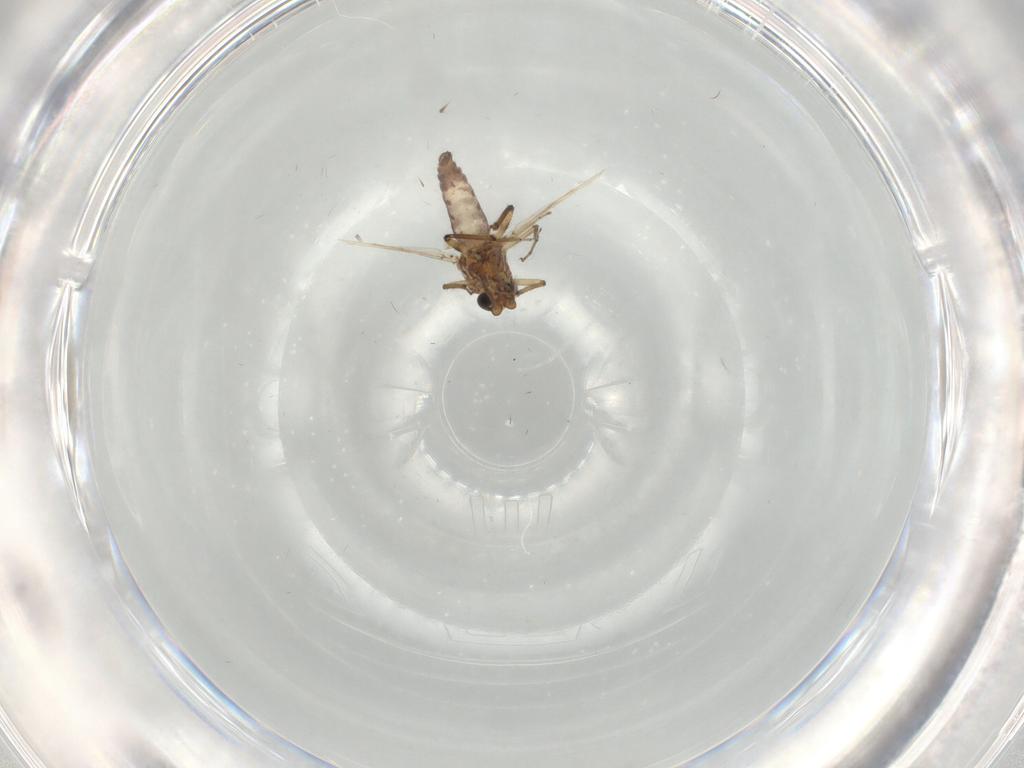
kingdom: Animalia
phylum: Arthropoda
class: Insecta
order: Diptera
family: Ceratopogonidae
